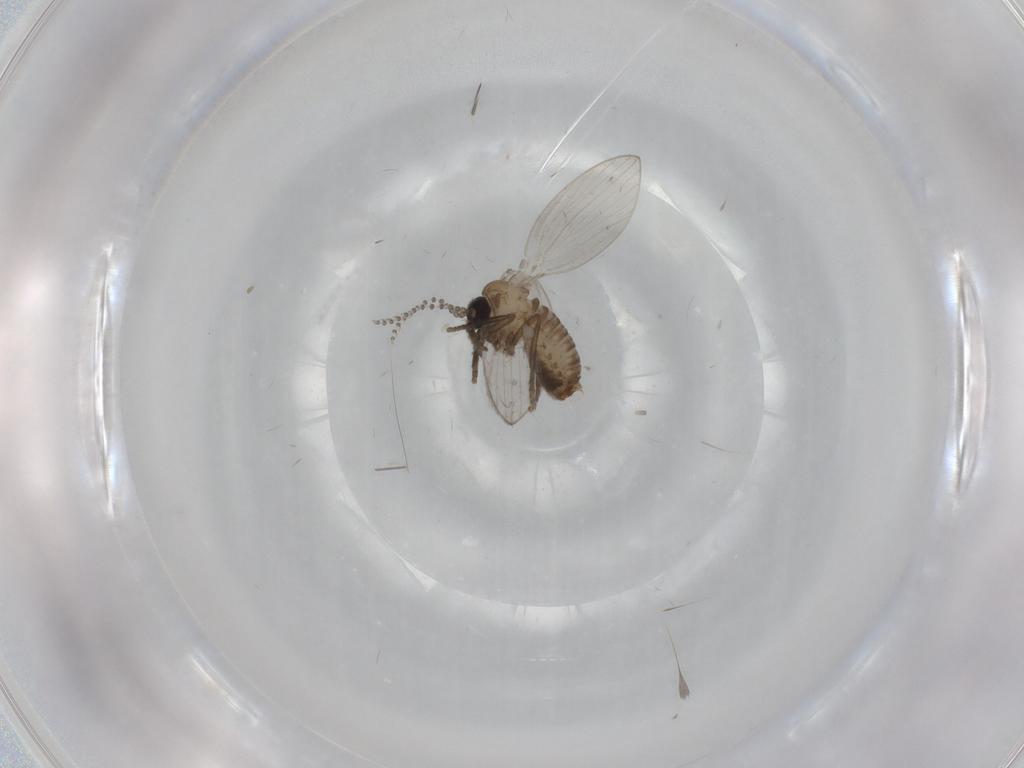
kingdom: Animalia
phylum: Arthropoda
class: Insecta
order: Diptera
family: Psychodidae
